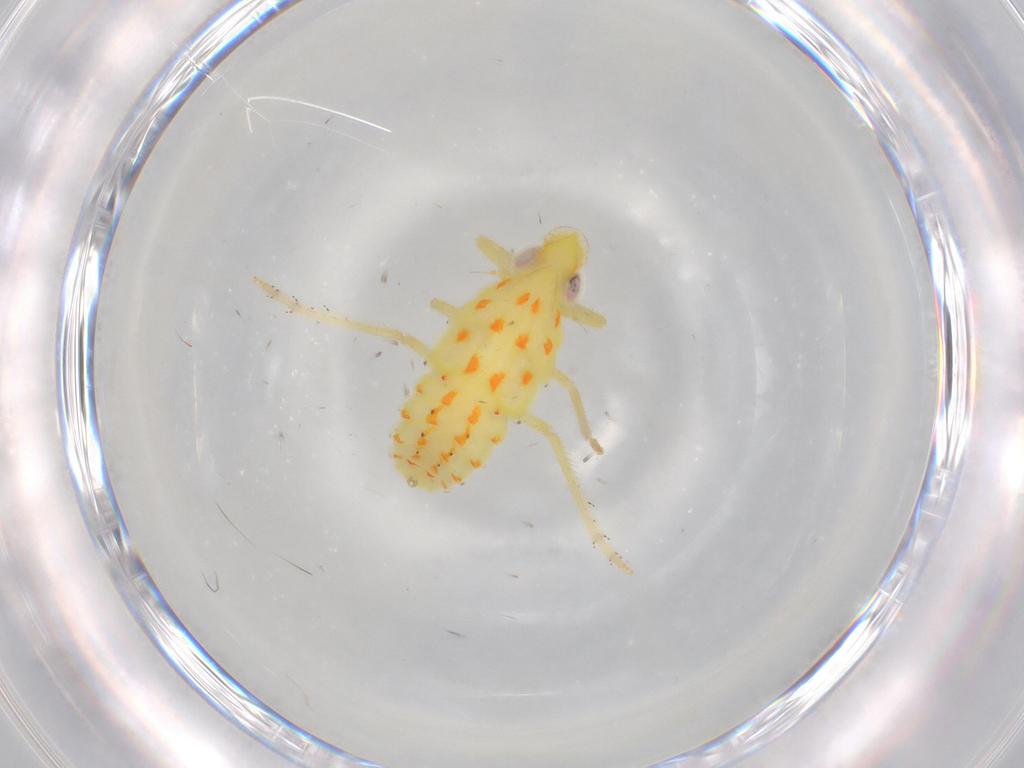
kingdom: Animalia
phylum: Arthropoda
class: Insecta
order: Hemiptera
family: Tropiduchidae
